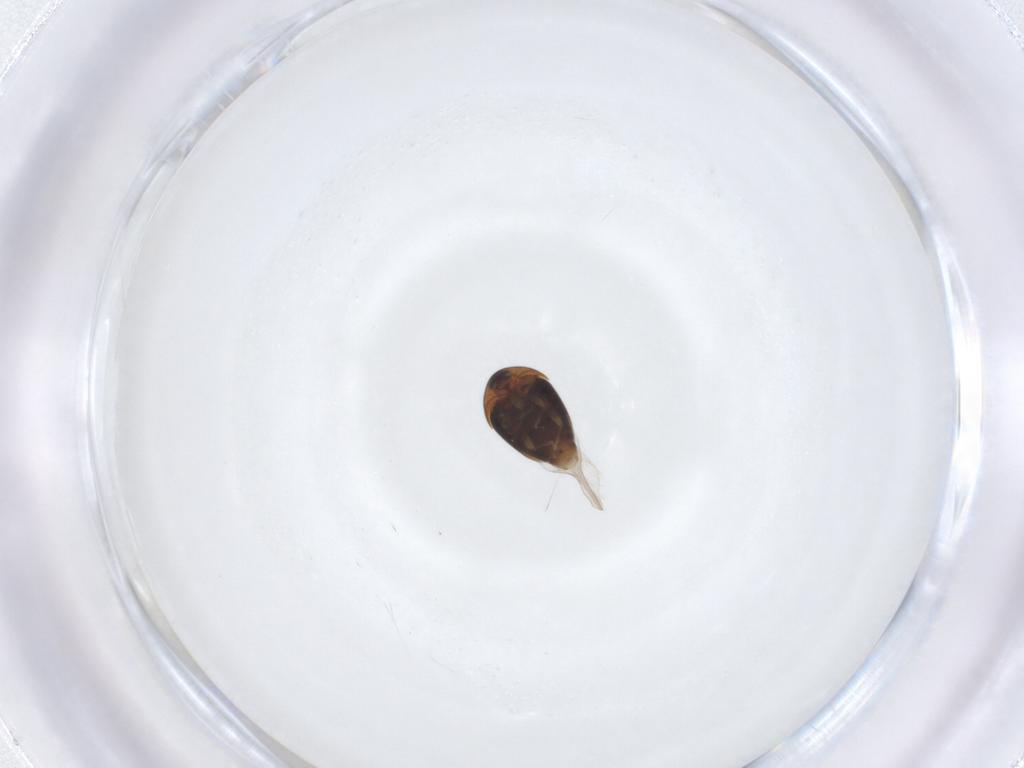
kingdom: Animalia
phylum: Arthropoda
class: Insecta
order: Coleoptera
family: Corylophidae
